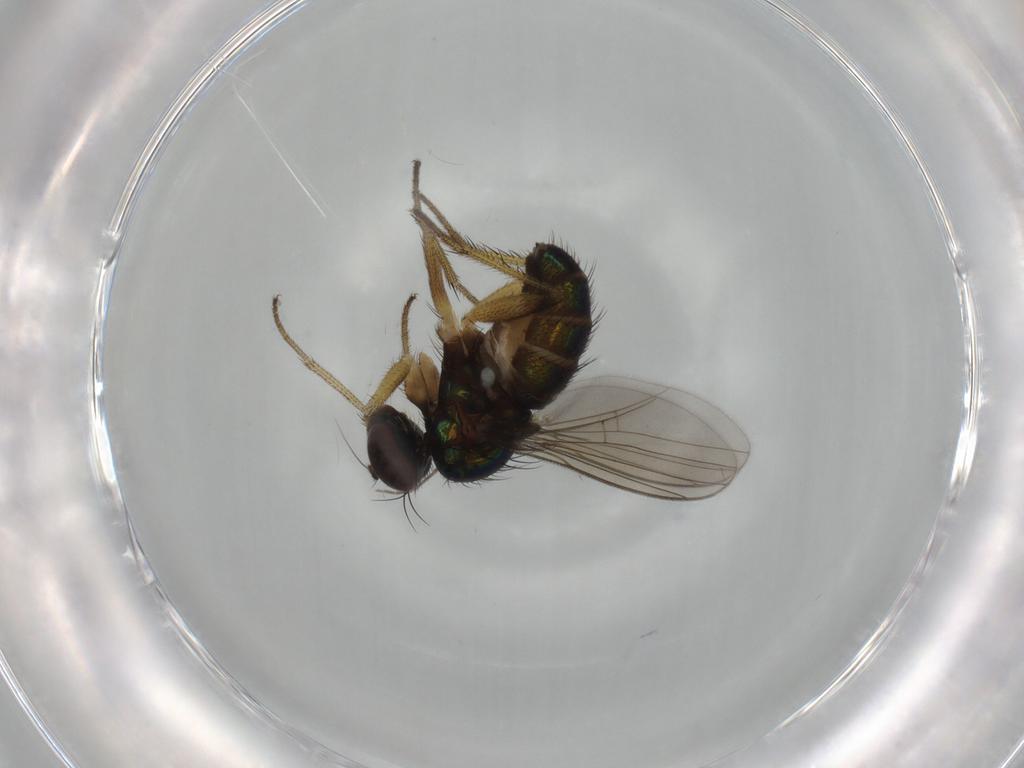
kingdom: Animalia
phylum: Arthropoda
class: Insecta
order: Diptera
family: Dolichopodidae
